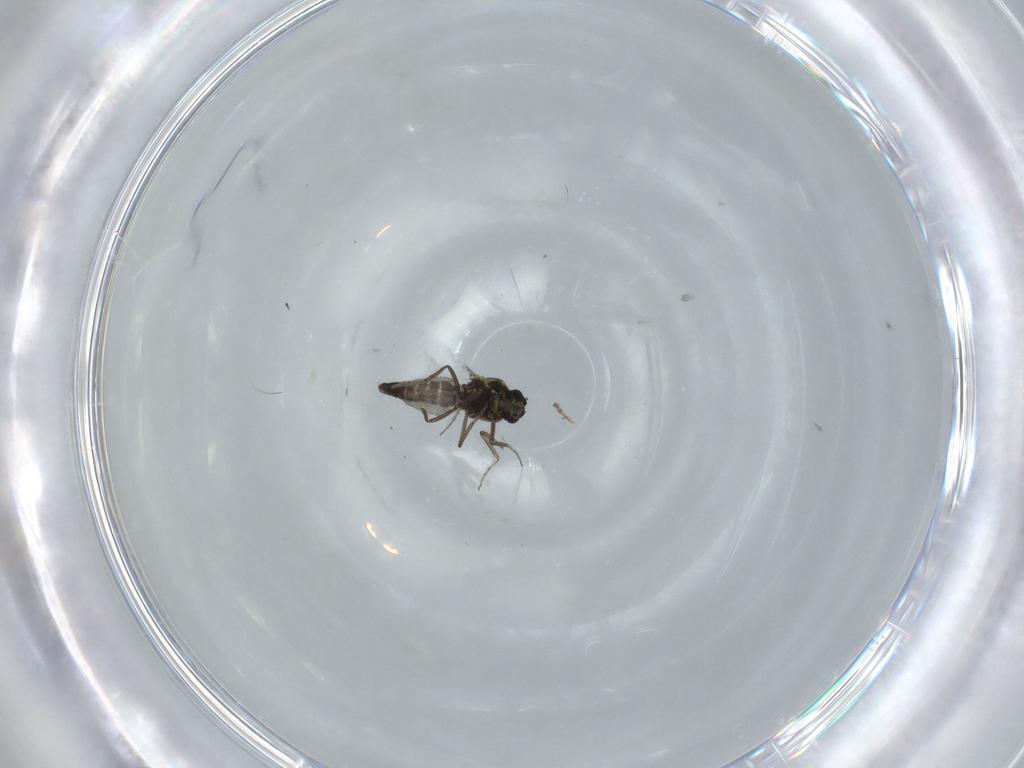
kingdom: Animalia
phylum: Arthropoda
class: Insecta
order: Diptera
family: Ceratopogonidae
